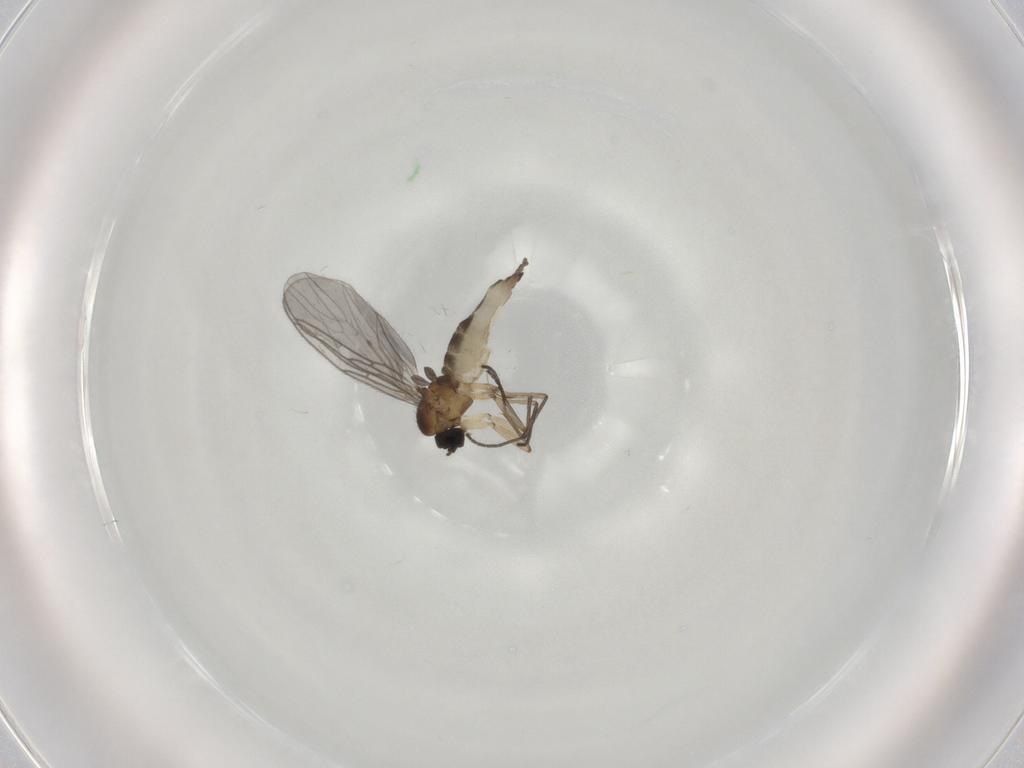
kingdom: Animalia
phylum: Arthropoda
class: Insecta
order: Diptera
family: Sciaridae
